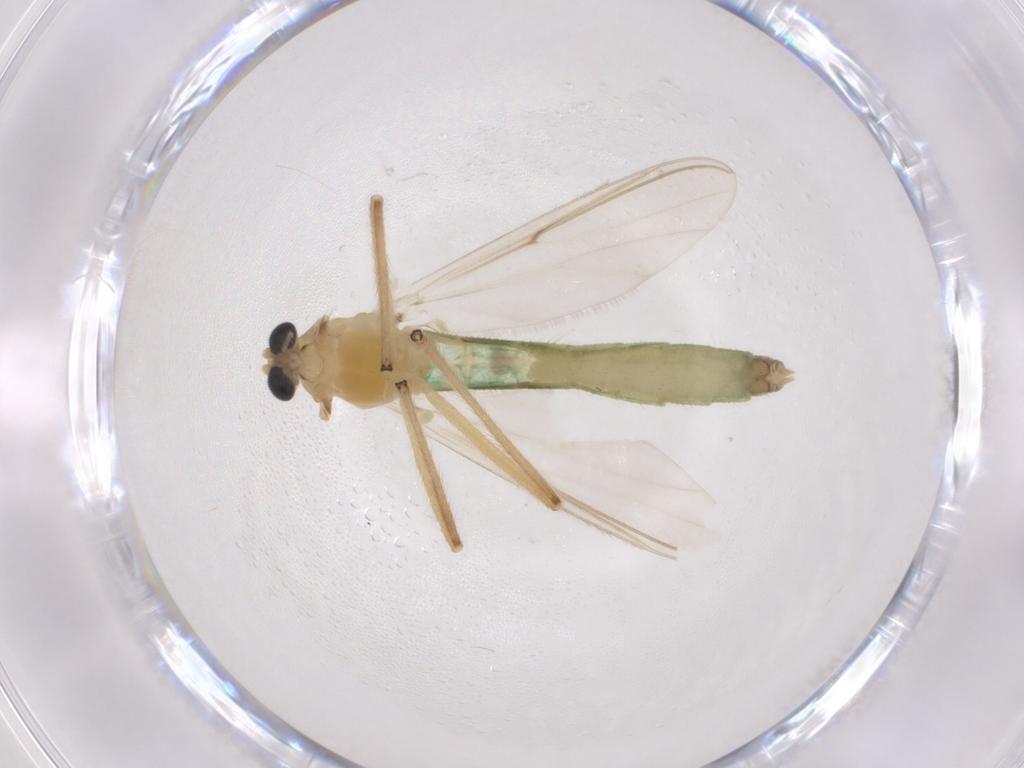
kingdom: Animalia
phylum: Arthropoda
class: Insecta
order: Diptera
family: Chironomidae
